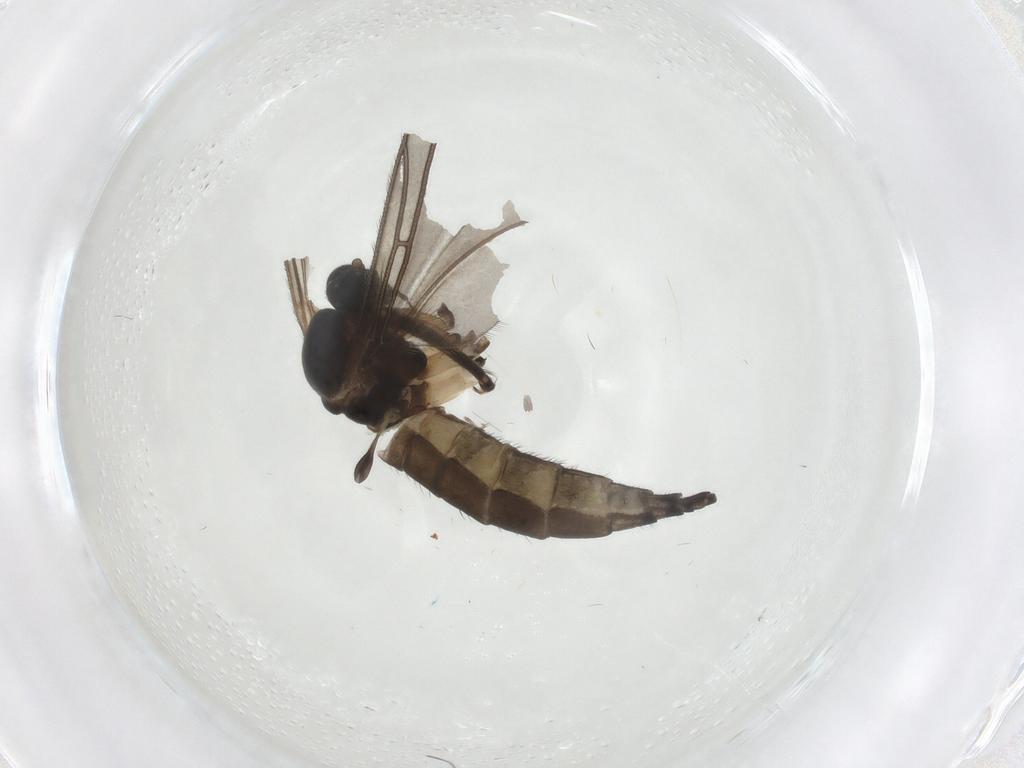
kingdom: Animalia
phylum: Arthropoda
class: Insecta
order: Diptera
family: Sciaridae
